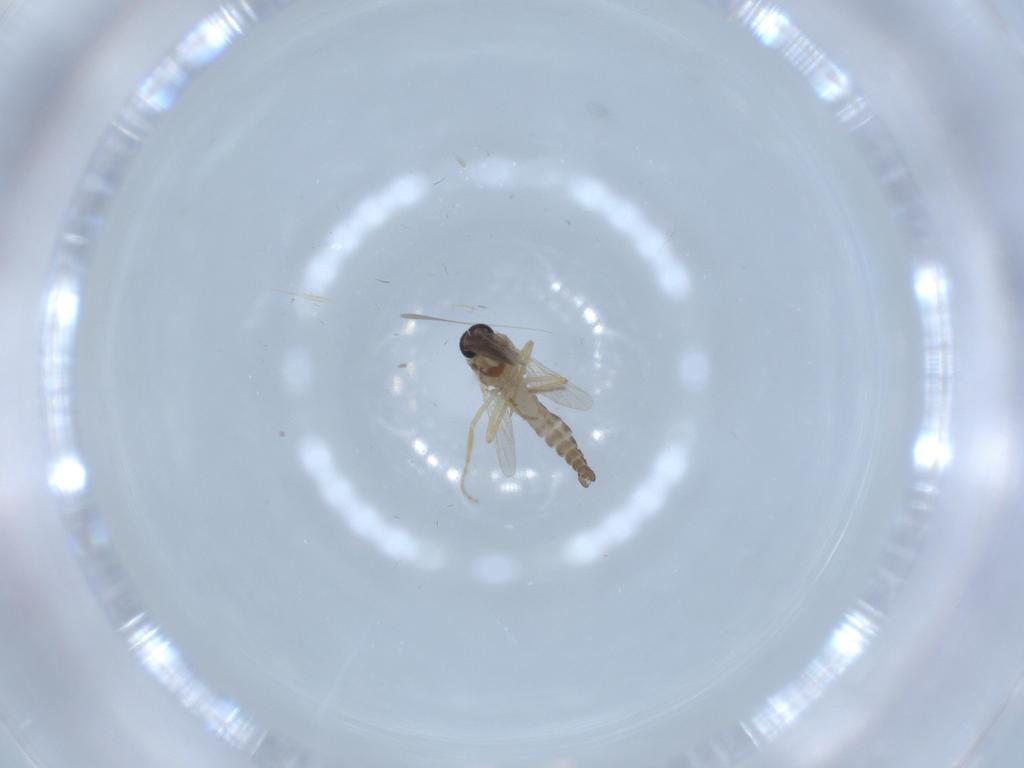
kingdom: Animalia
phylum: Arthropoda
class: Insecta
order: Diptera
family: Ceratopogonidae
